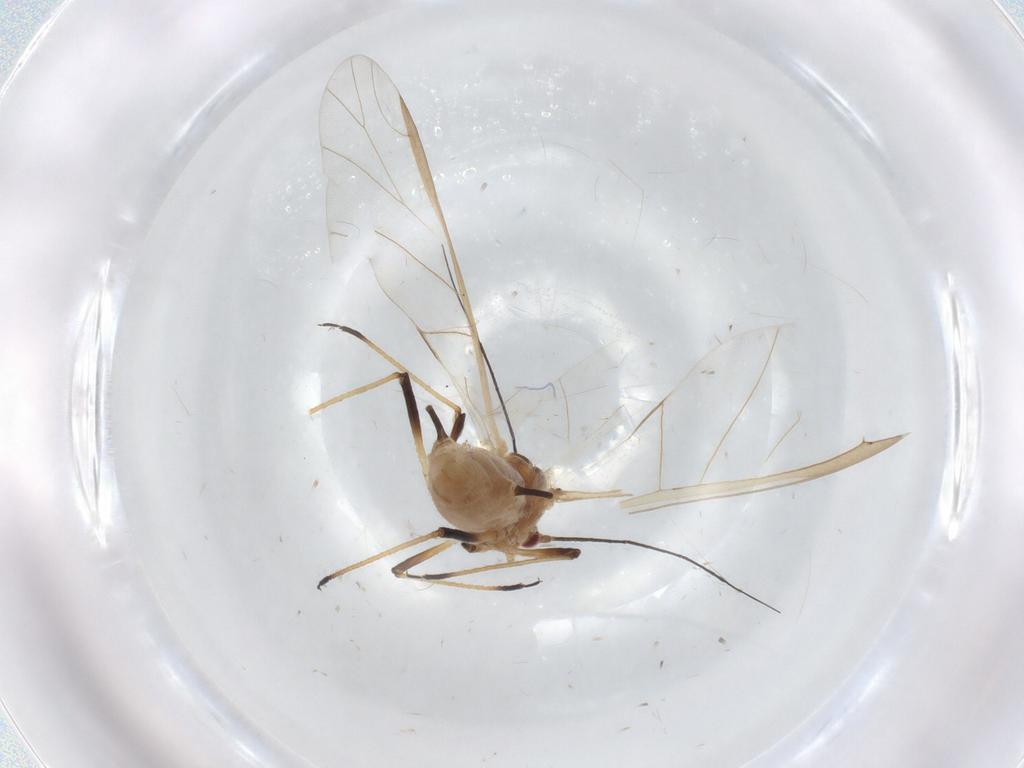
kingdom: Animalia
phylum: Arthropoda
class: Insecta
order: Hemiptera
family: Aphididae
